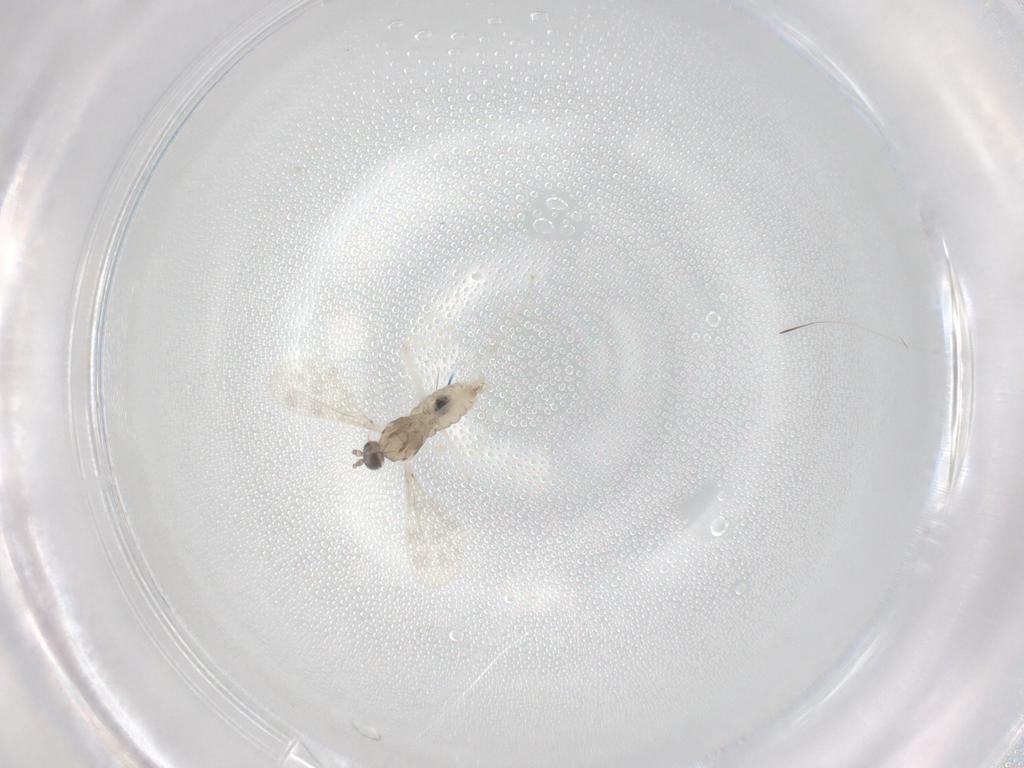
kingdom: Animalia
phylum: Arthropoda
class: Insecta
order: Diptera
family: Cecidomyiidae
